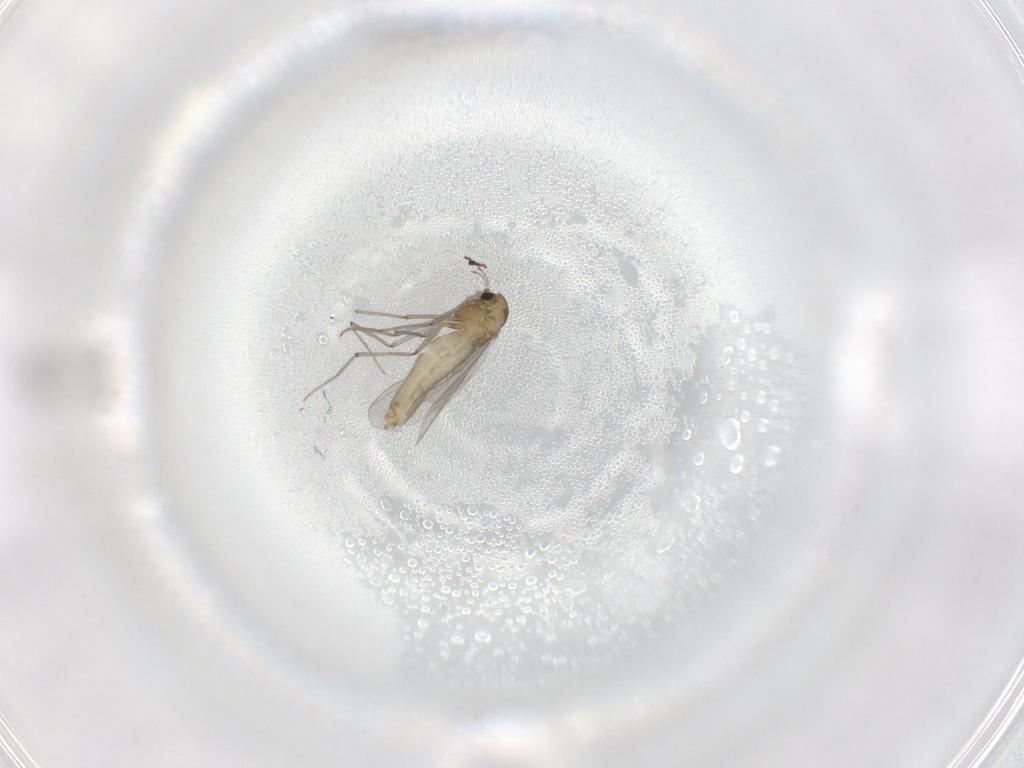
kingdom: Animalia
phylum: Arthropoda
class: Insecta
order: Diptera
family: Chironomidae
